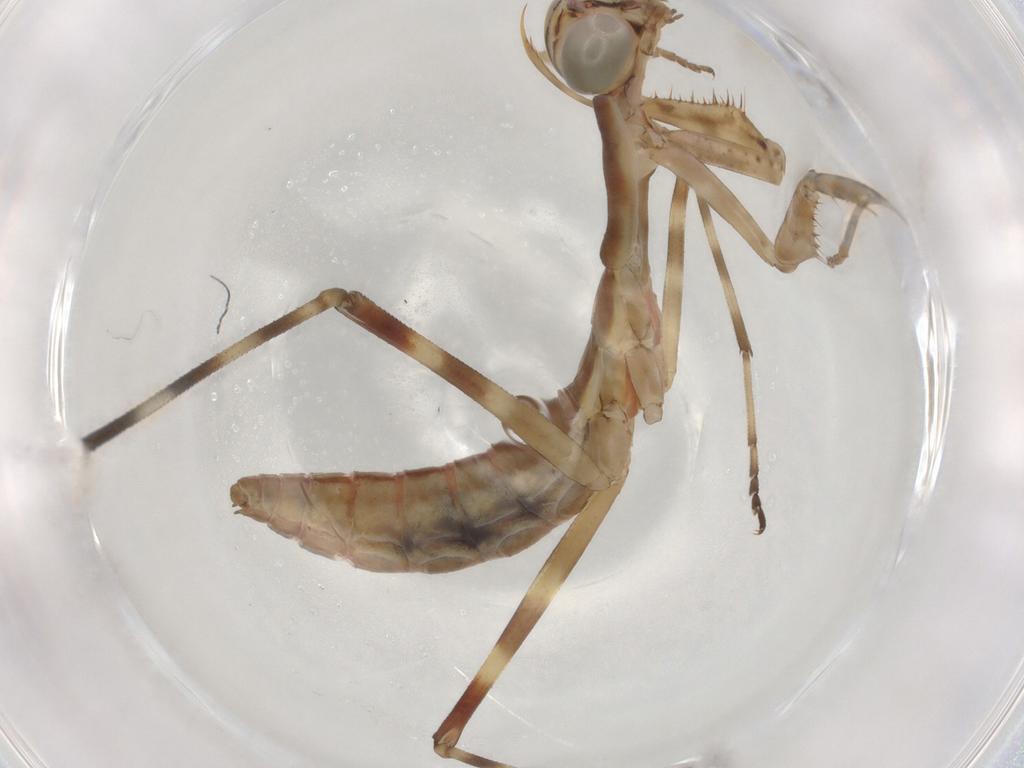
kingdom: Animalia
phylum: Arthropoda
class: Insecta
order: Mantodea
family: Miomantidae
